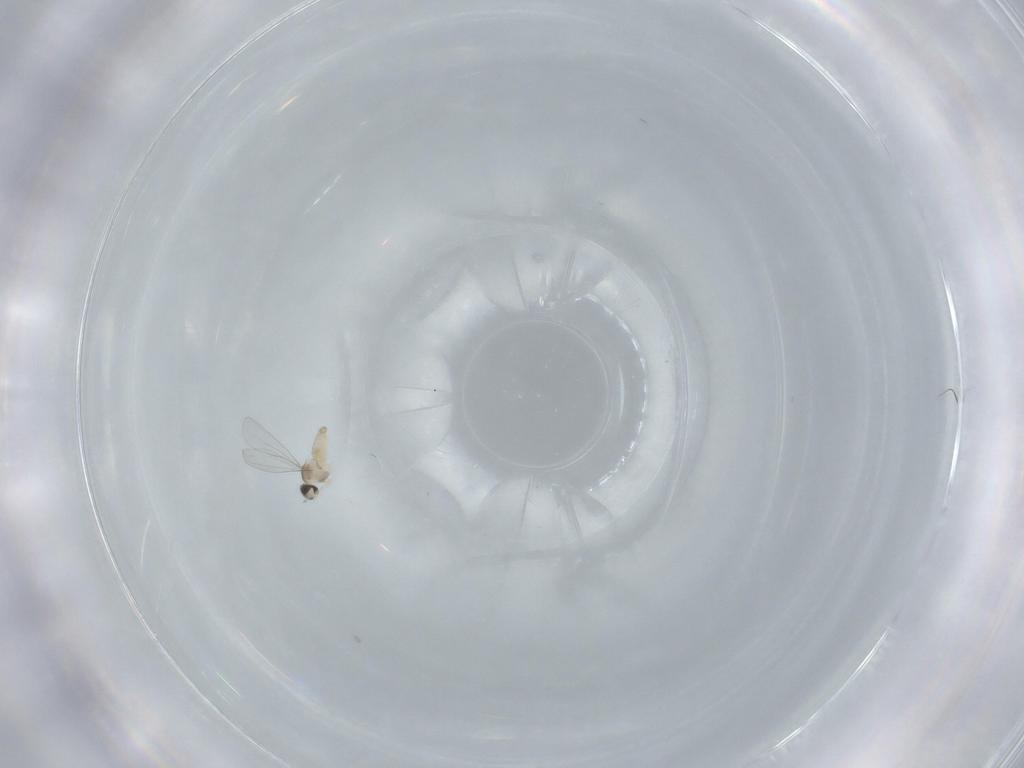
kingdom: Animalia
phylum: Arthropoda
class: Insecta
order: Diptera
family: Cecidomyiidae
